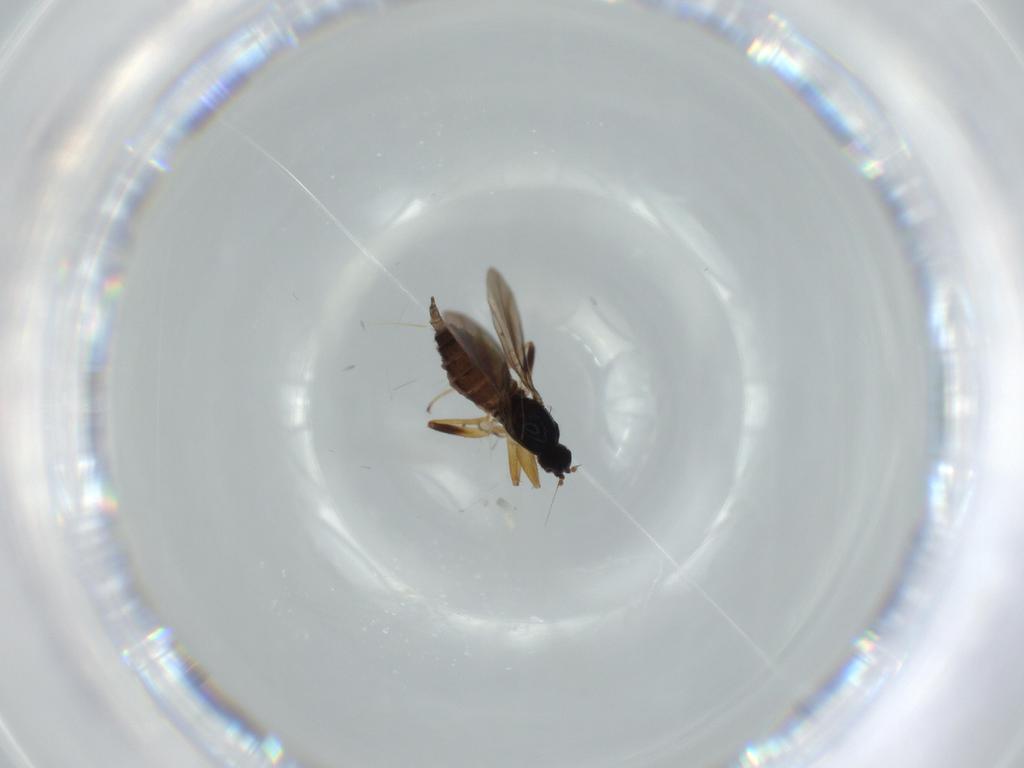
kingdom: Animalia
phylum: Arthropoda
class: Insecta
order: Diptera
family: Hybotidae
